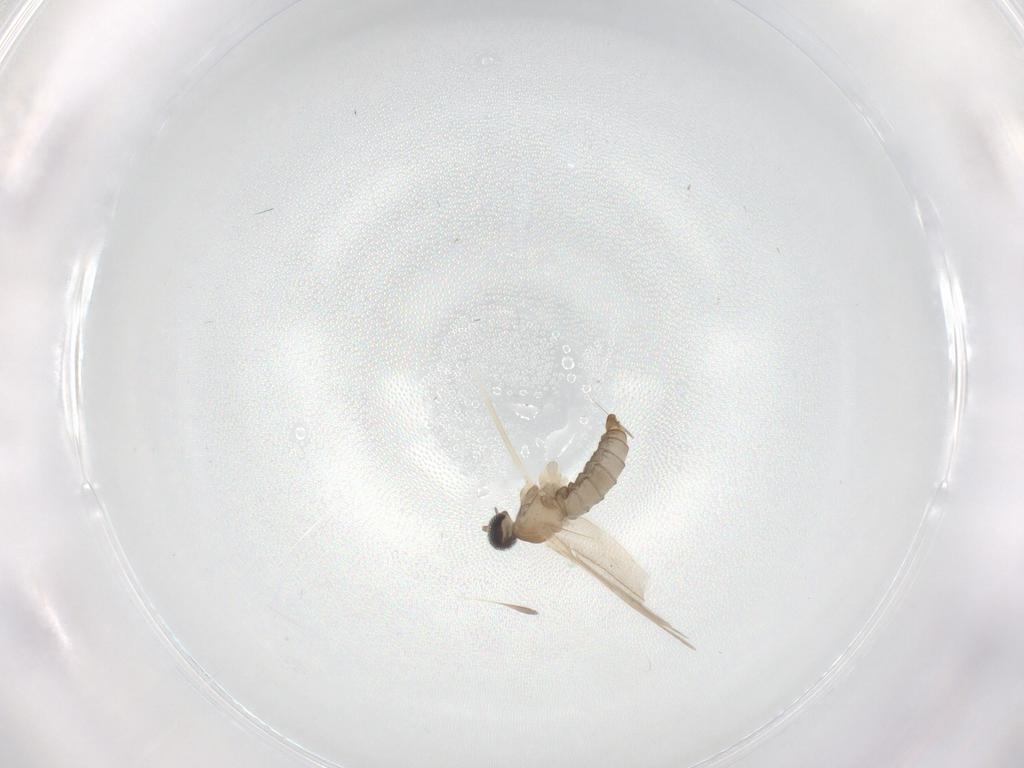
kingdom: Animalia
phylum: Arthropoda
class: Insecta
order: Diptera
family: Cecidomyiidae
